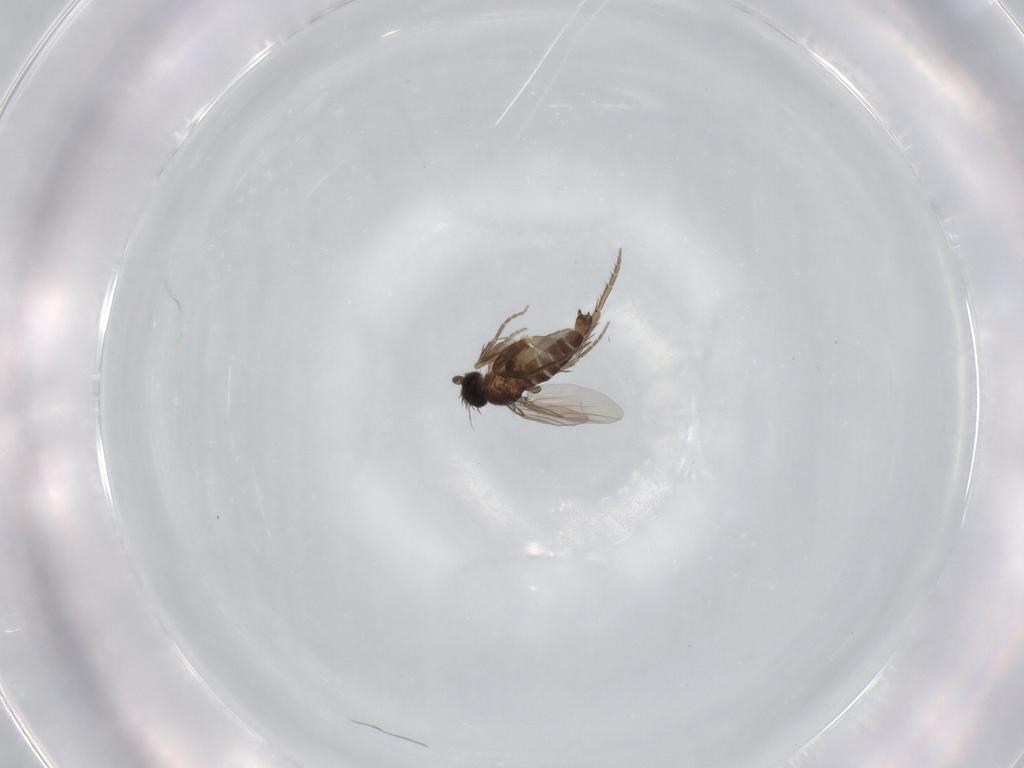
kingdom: Animalia
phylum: Arthropoda
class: Insecta
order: Diptera
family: Phoridae
